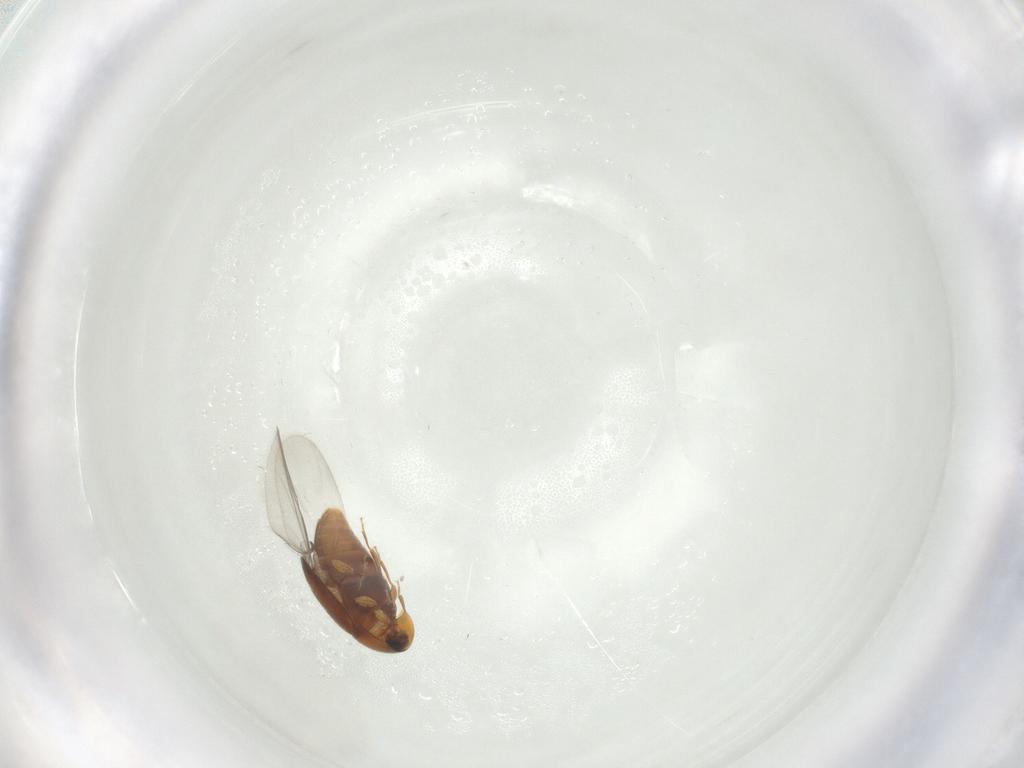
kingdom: Animalia
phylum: Arthropoda
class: Insecta
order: Coleoptera
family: Corylophidae
